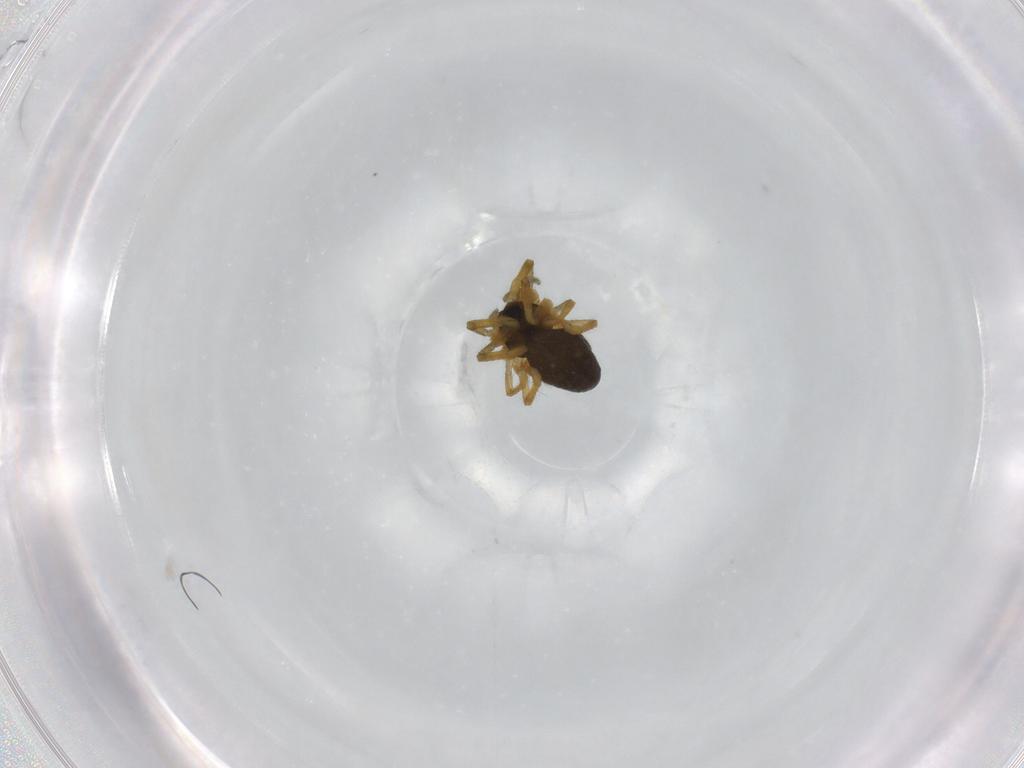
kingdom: Animalia
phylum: Arthropoda
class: Arachnida
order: Araneae
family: Linyphiidae
